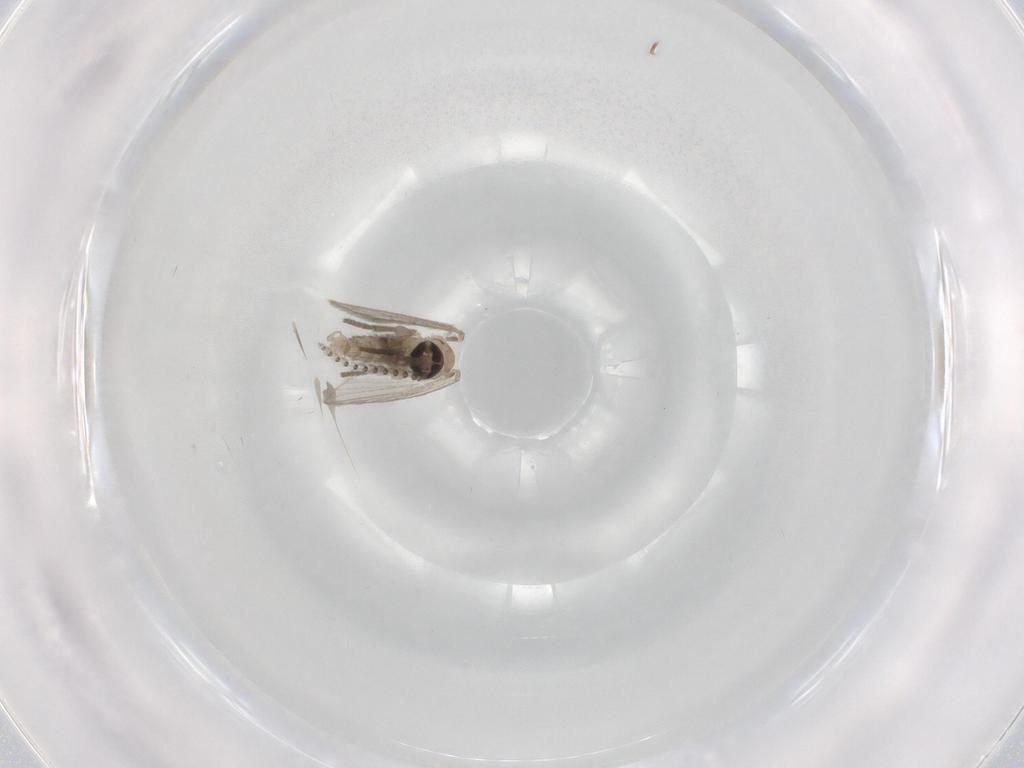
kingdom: Animalia
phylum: Arthropoda
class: Insecta
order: Diptera
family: Psychodidae
